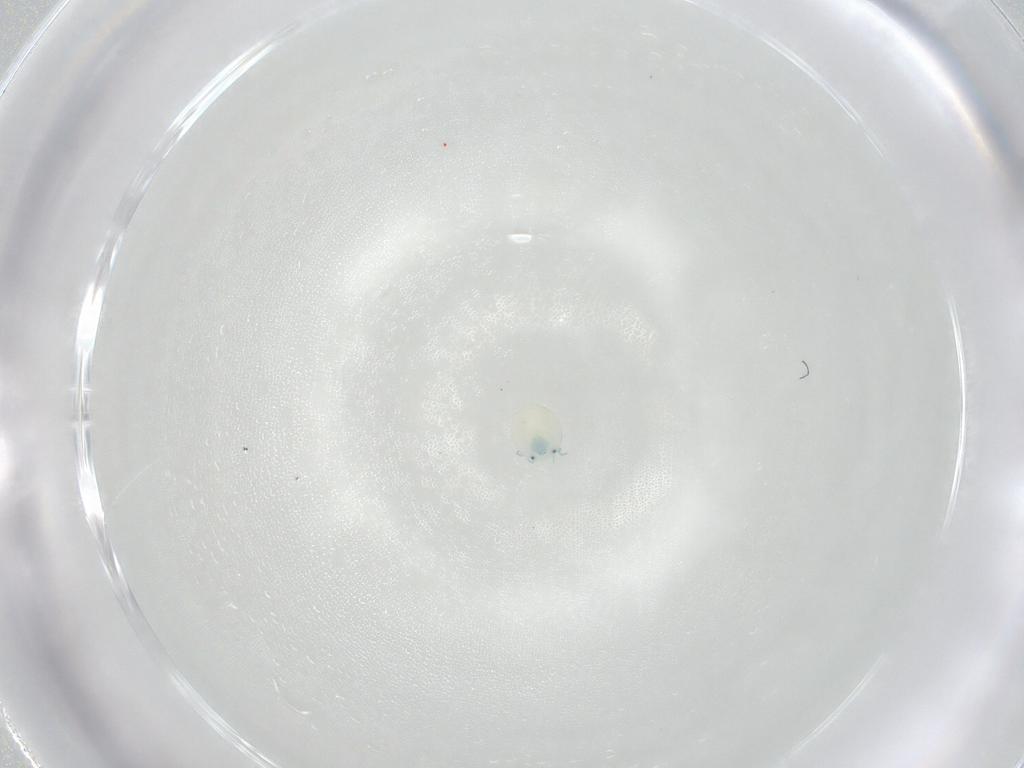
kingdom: Animalia
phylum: Arthropoda
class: Arachnida
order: Trombidiformes
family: Arrenuridae
